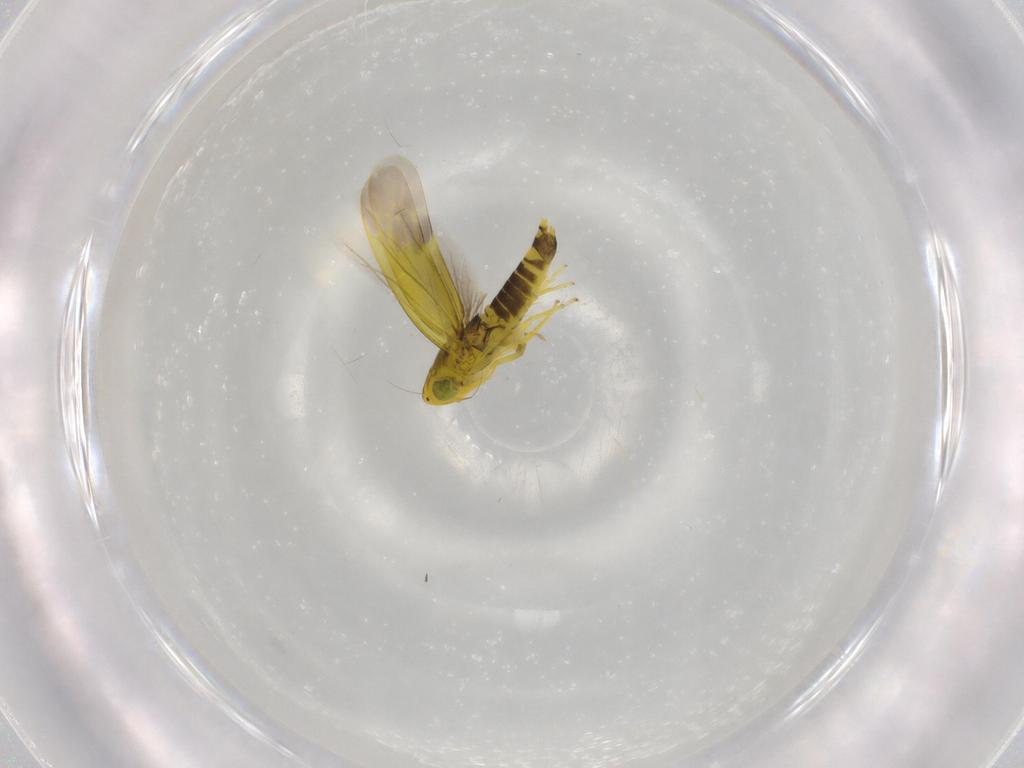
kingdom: Animalia
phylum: Arthropoda
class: Insecta
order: Hemiptera
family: Cicadellidae
